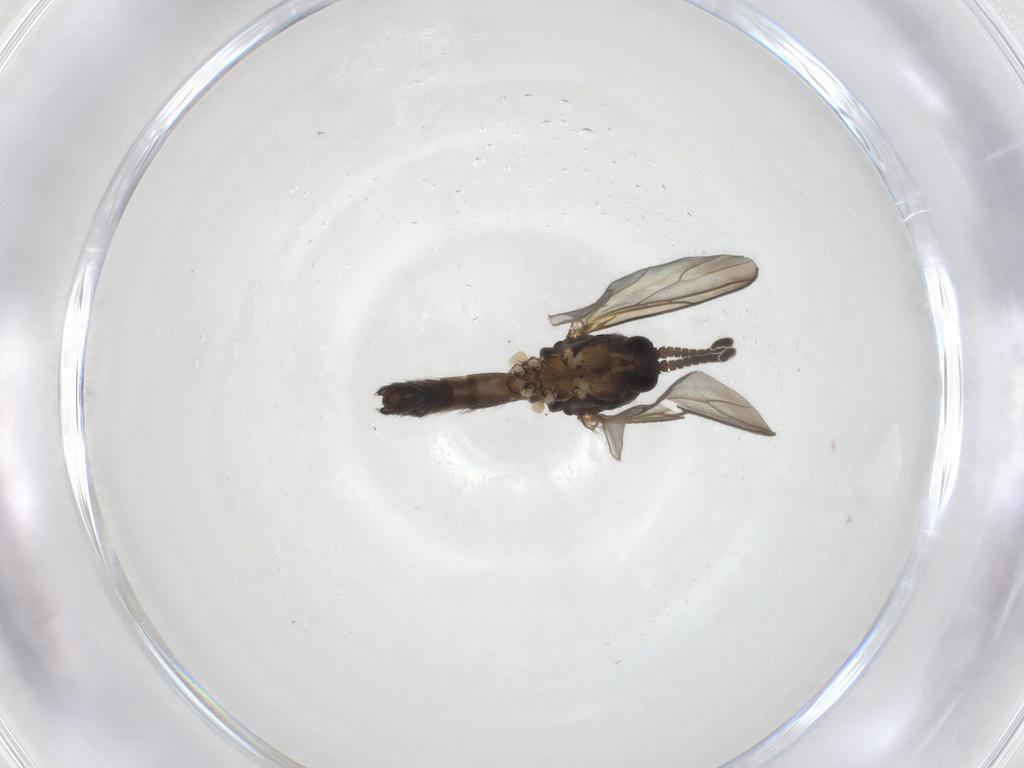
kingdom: Animalia
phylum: Arthropoda
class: Insecta
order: Diptera
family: Mycetophilidae
